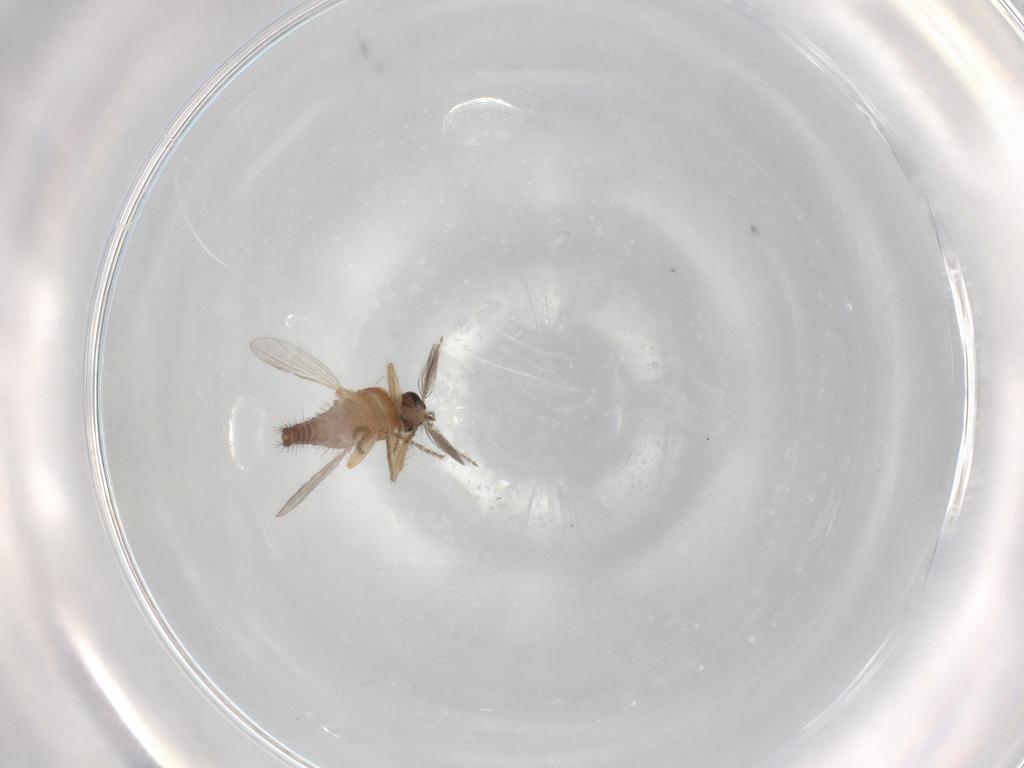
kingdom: Animalia
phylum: Arthropoda
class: Insecta
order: Diptera
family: Ceratopogonidae
